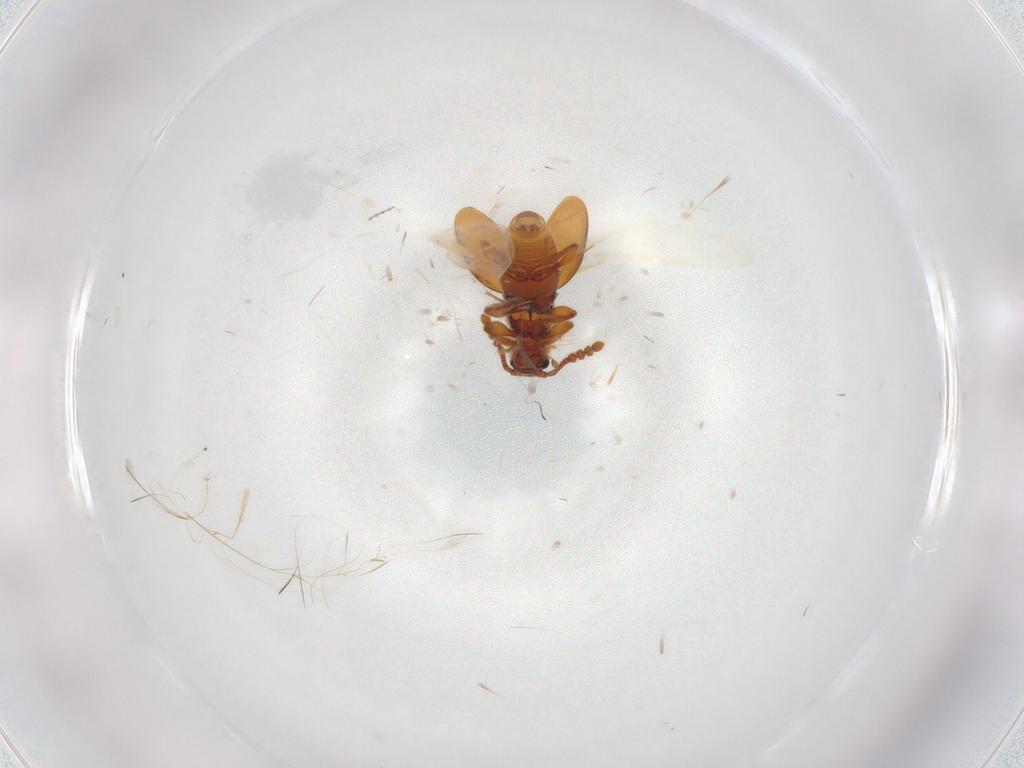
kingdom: Animalia
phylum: Arthropoda
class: Insecta
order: Coleoptera
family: Staphylinidae
